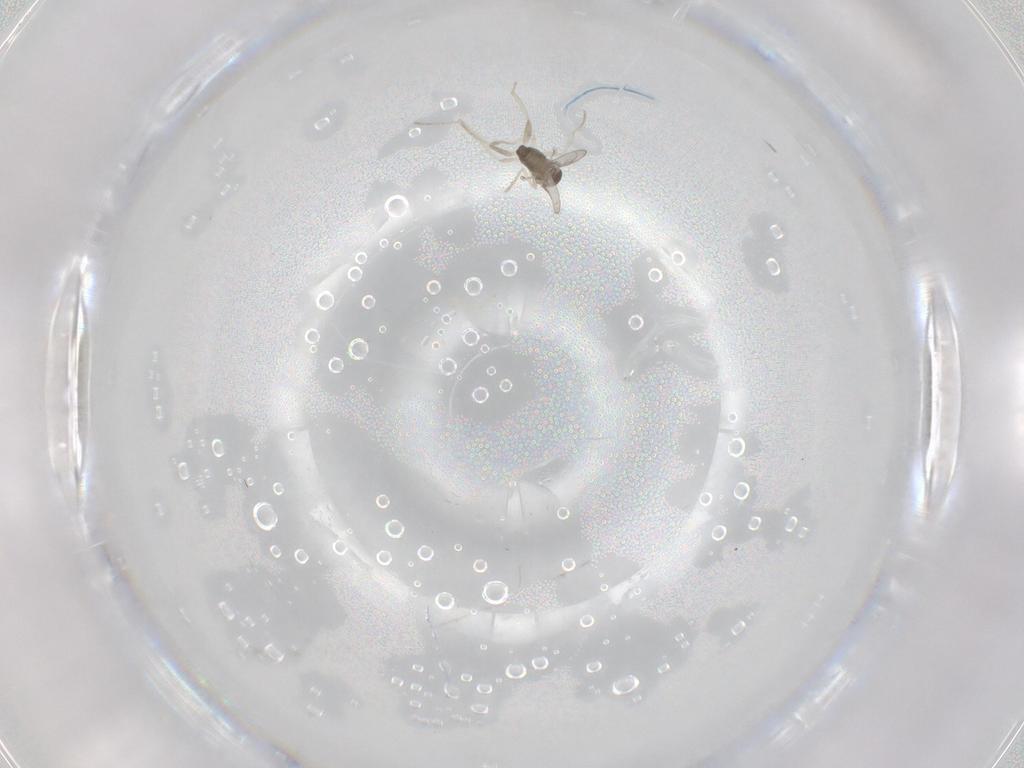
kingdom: Animalia
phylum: Arthropoda
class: Insecta
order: Diptera
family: Cecidomyiidae
